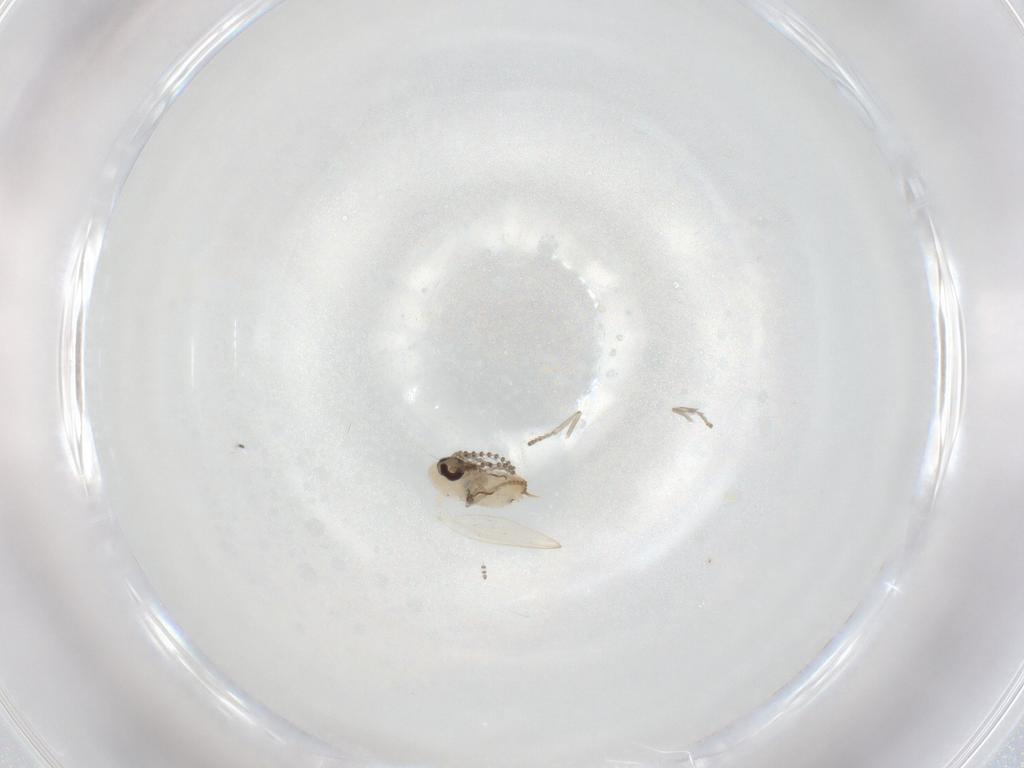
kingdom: Animalia
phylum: Arthropoda
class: Insecta
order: Diptera
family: Psychodidae
